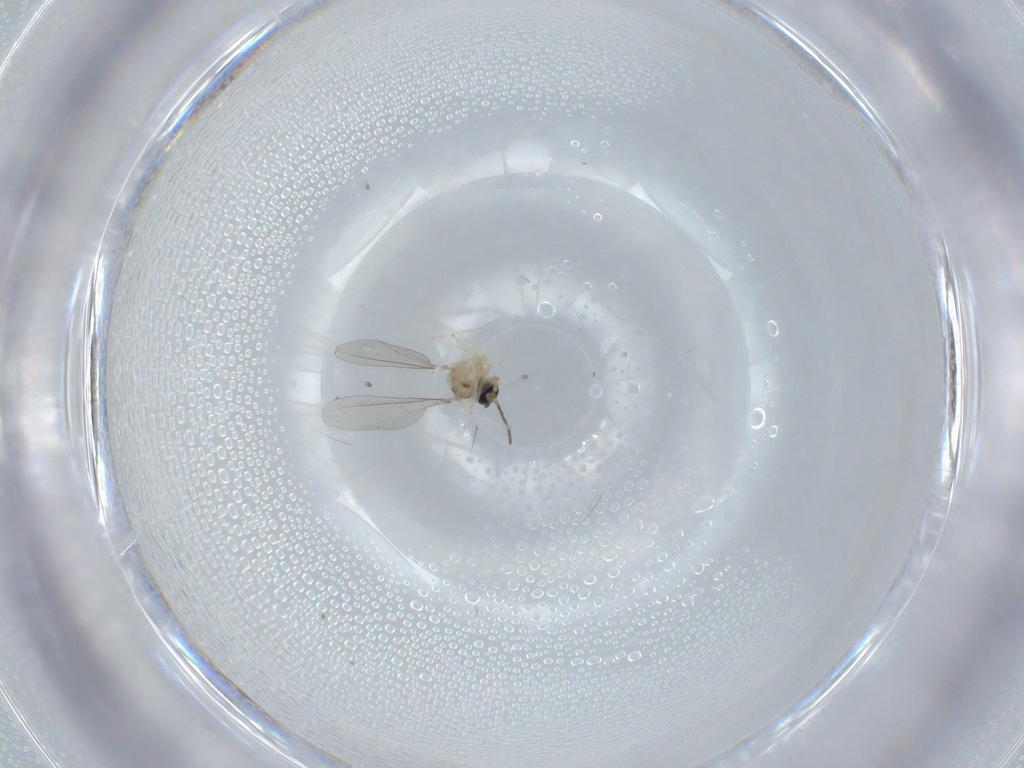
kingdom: Animalia
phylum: Arthropoda
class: Insecta
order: Diptera
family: Cecidomyiidae
